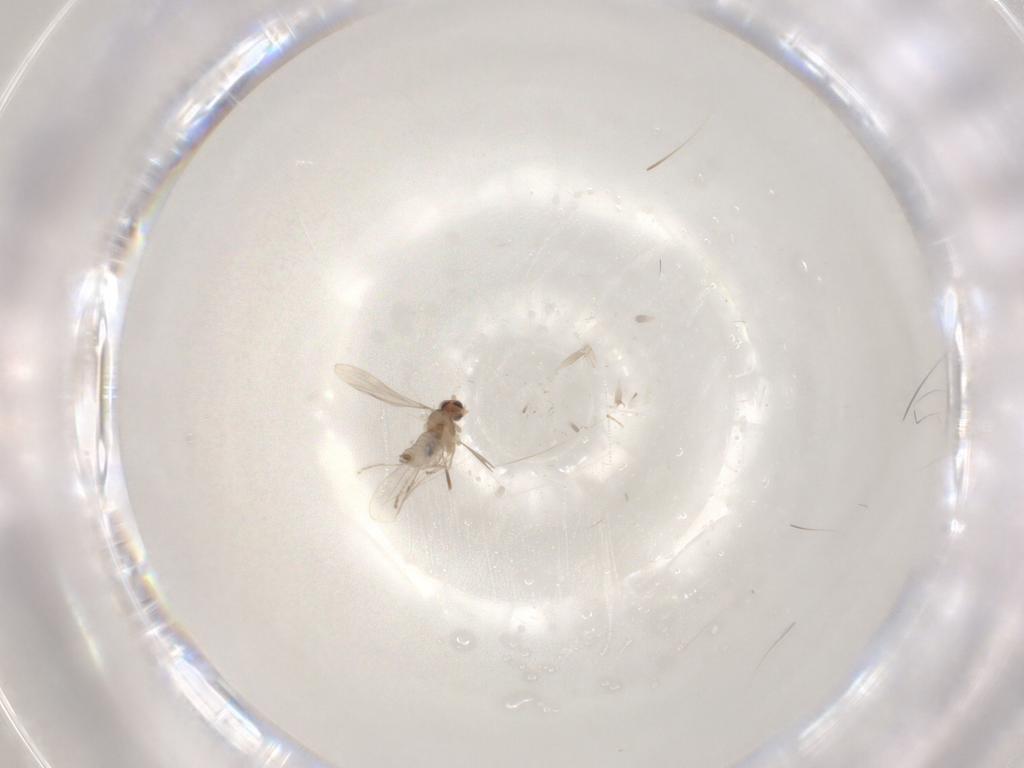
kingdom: Animalia
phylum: Arthropoda
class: Insecta
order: Diptera
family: Cecidomyiidae
